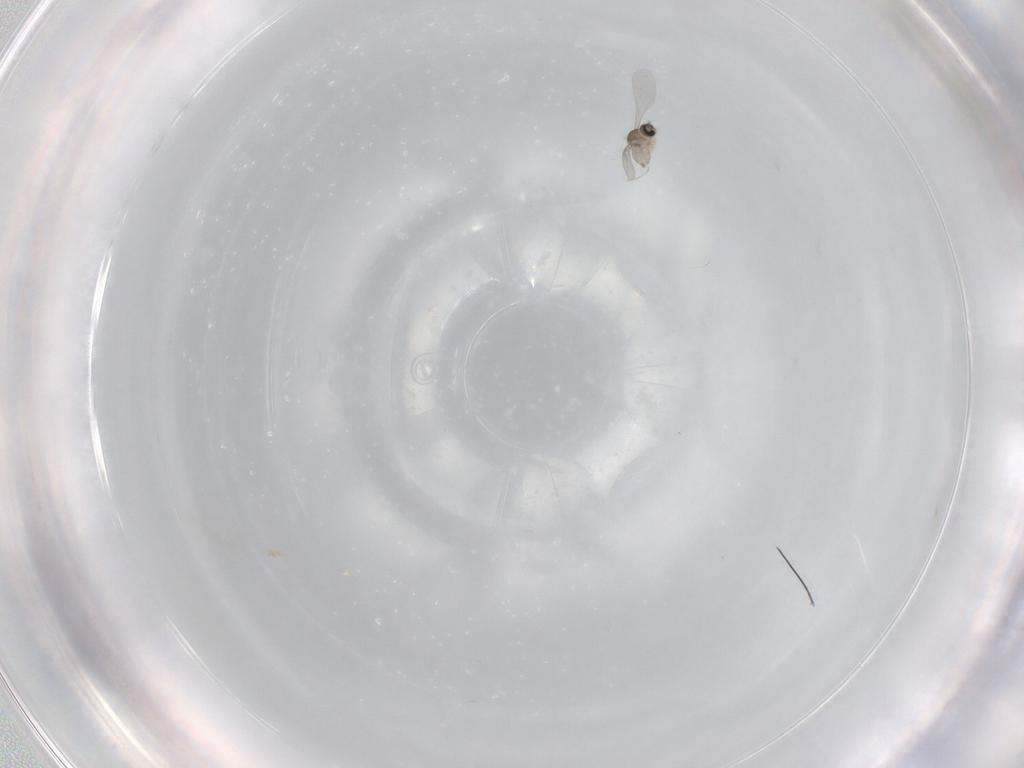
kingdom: Animalia
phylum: Arthropoda
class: Insecta
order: Diptera
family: Cecidomyiidae
